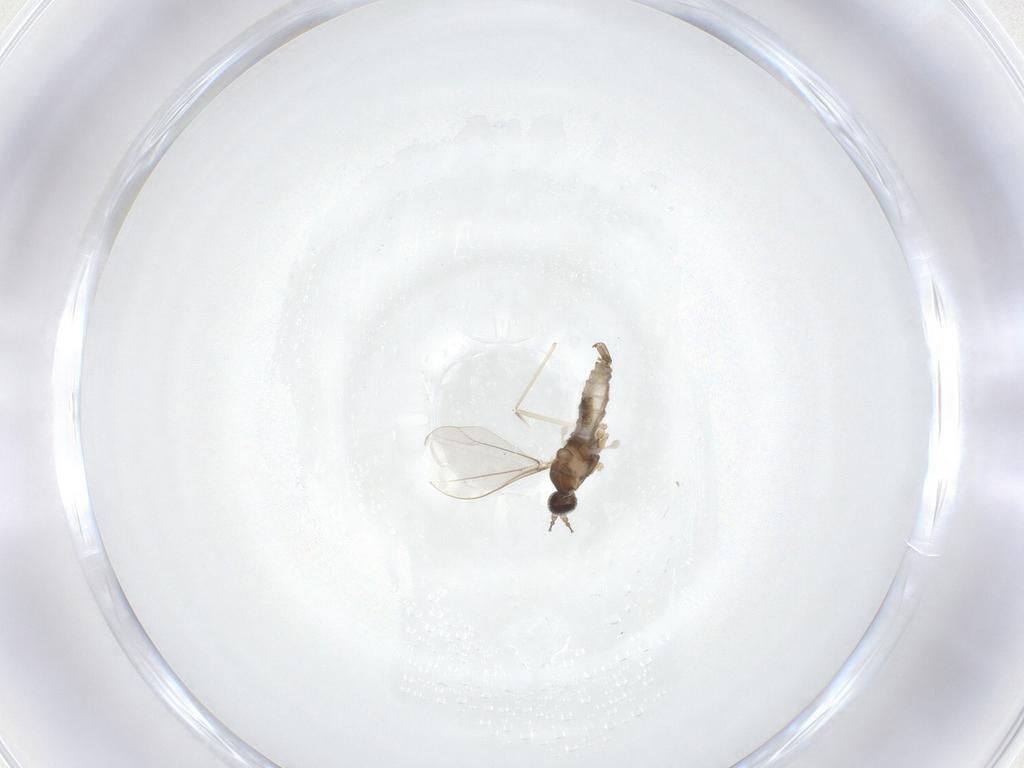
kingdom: Animalia
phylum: Arthropoda
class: Insecta
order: Diptera
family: Cecidomyiidae
